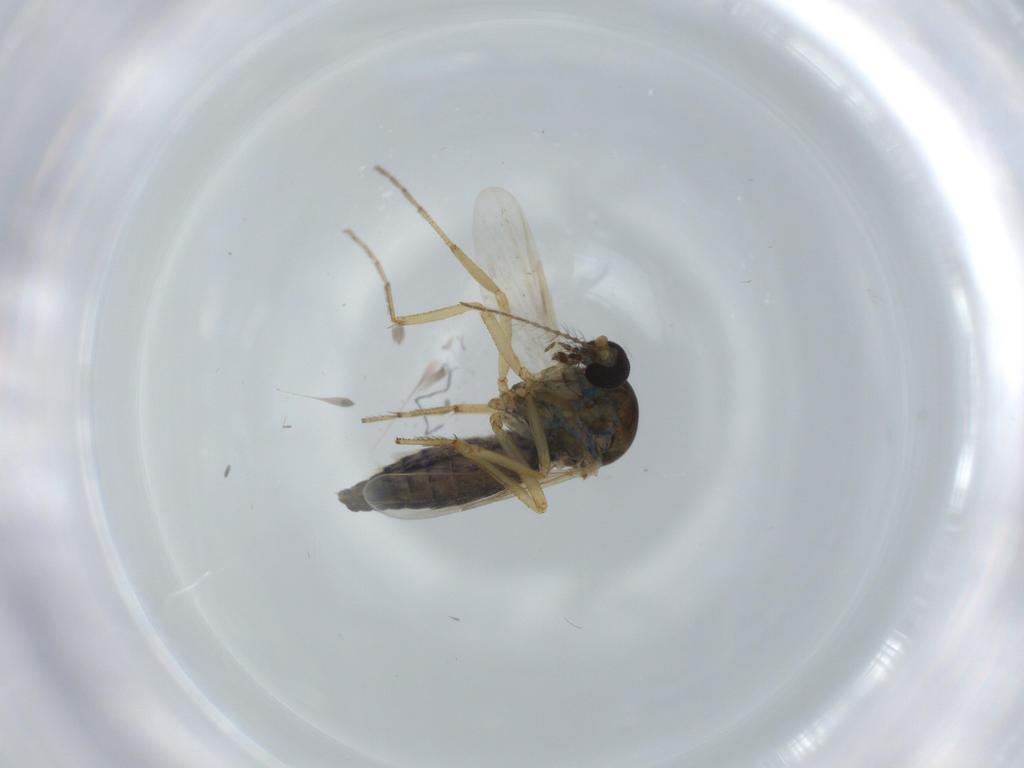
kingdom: Animalia
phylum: Arthropoda
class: Insecta
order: Diptera
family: Ceratopogonidae
